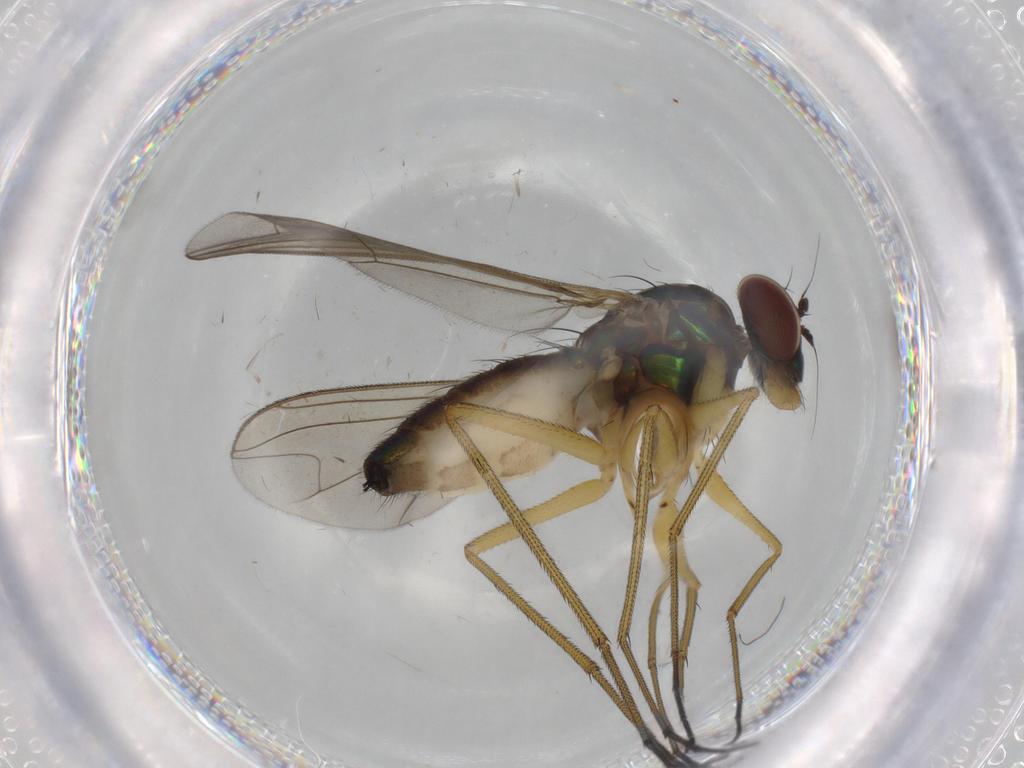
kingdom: Animalia
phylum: Arthropoda
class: Insecta
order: Diptera
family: Dolichopodidae
